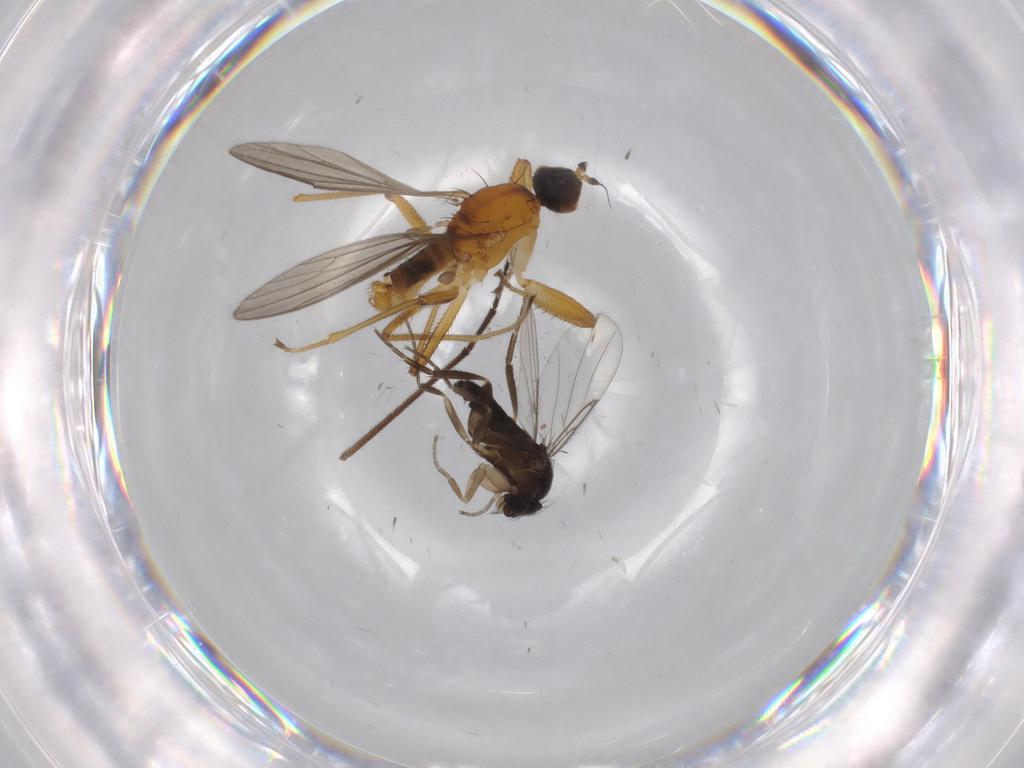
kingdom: Animalia
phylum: Arthropoda
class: Insecta
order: Diptera
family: Phoridae
